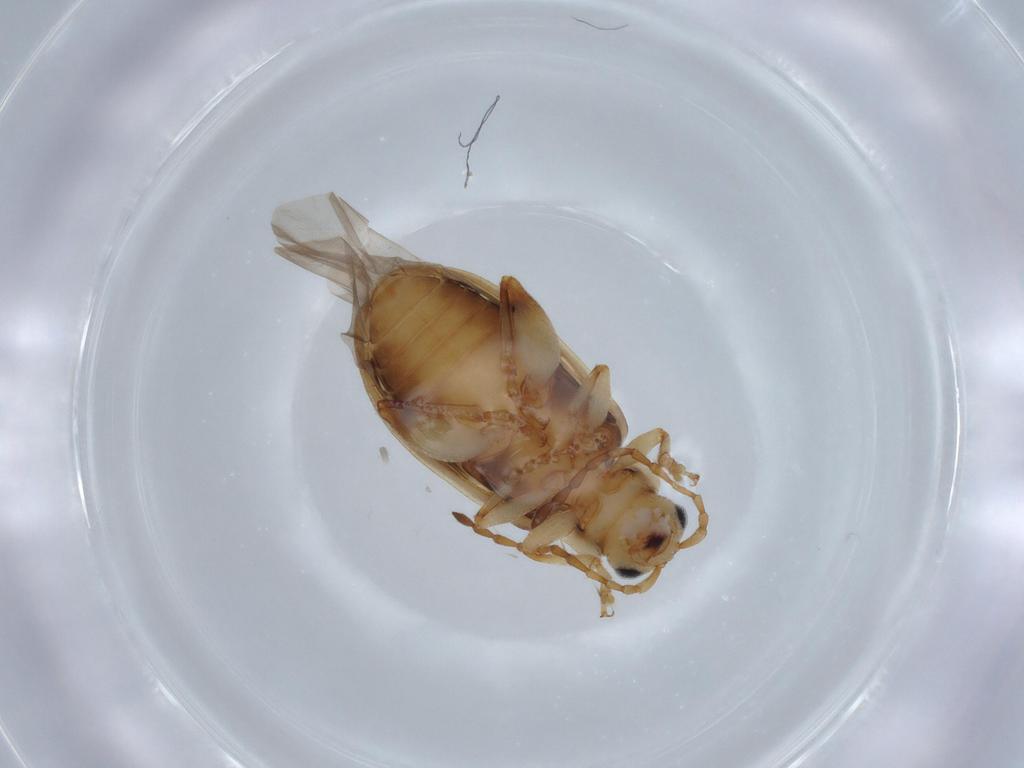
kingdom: Animalia
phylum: Arthropoda
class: Insecta
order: Coleoptera
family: Chrysomelidae
